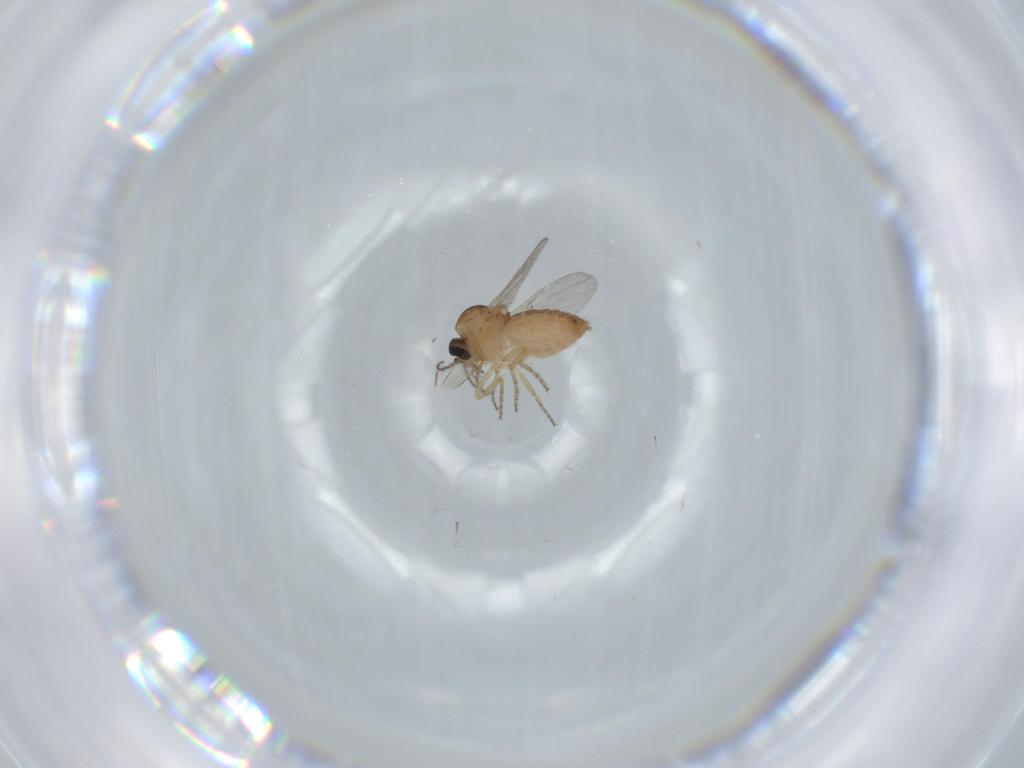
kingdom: Animalia
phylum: Arthropoda
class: Insecta
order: Diptera
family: Ceratopogonidae
